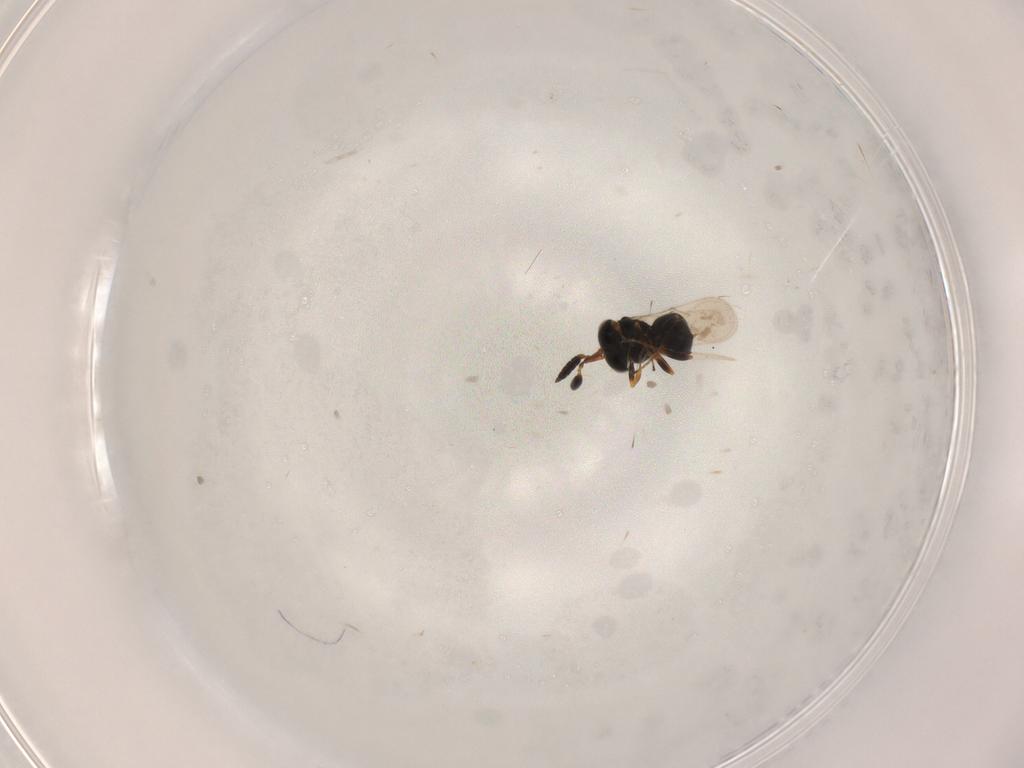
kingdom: Animalia
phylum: Arthropoda
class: Insecta
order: Hymenoptera
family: Scelionidae
